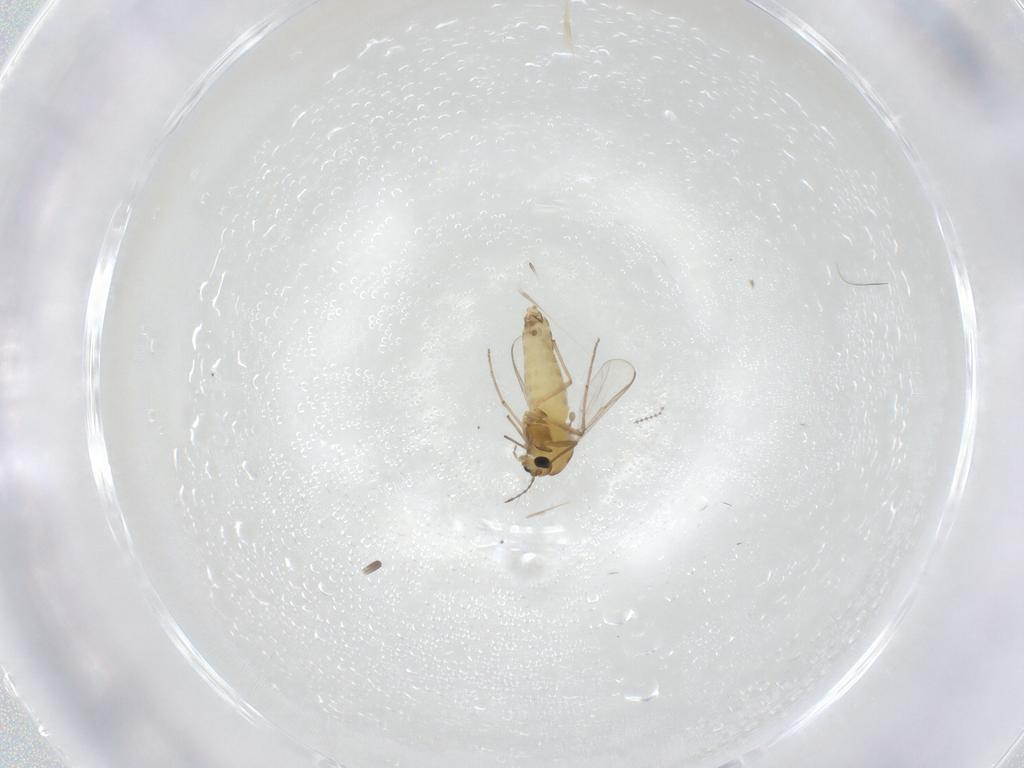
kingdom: Animalia
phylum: Arthropoda
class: Insecta
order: Diptera
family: Chironomidae
